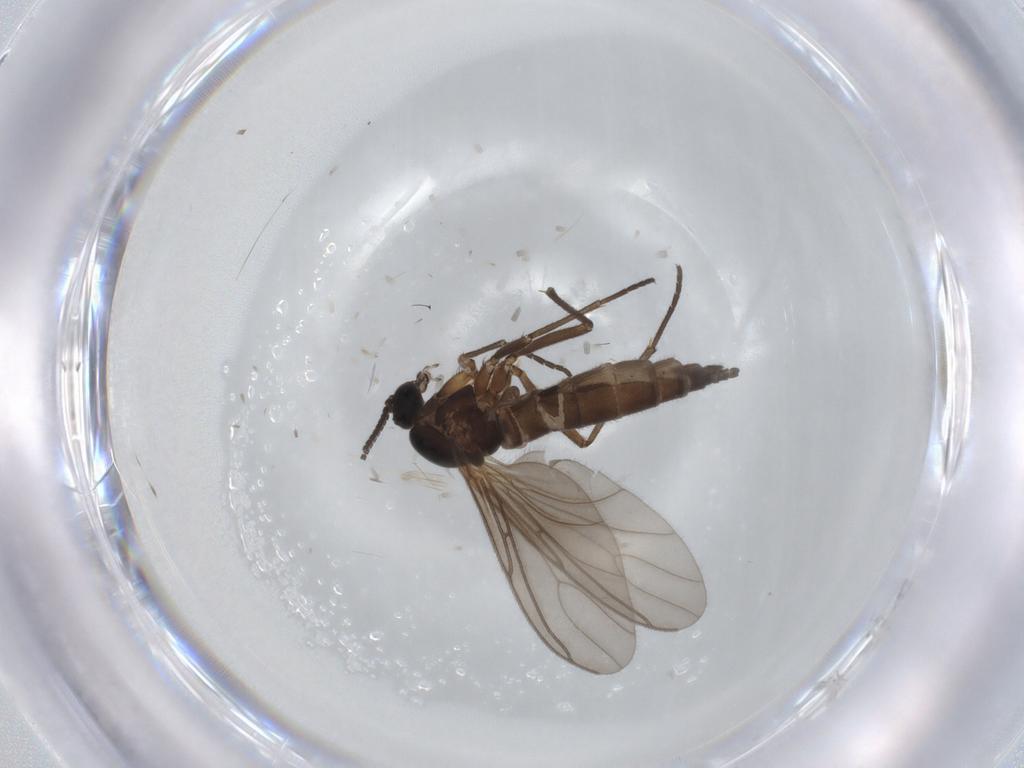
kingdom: Animalia
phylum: Arthropoda
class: Insecta
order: Diptera
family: Sciaridae
